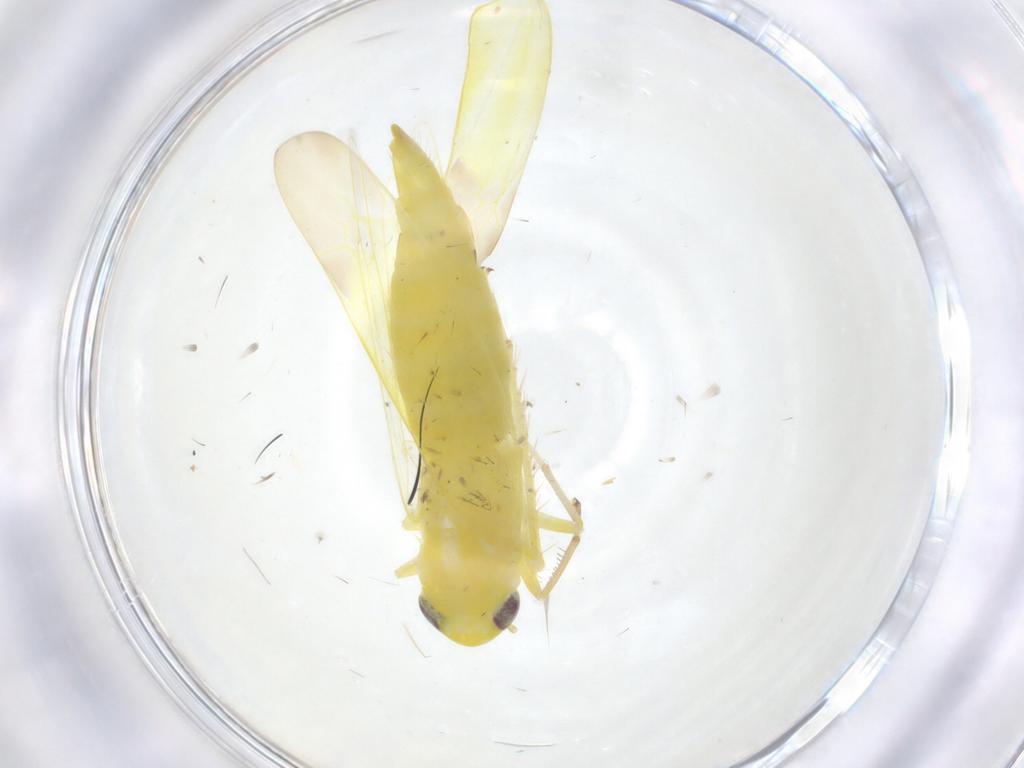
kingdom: Animalia
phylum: Arthropoda
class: Insecta
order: Hemiptera
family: Cicadellidae
